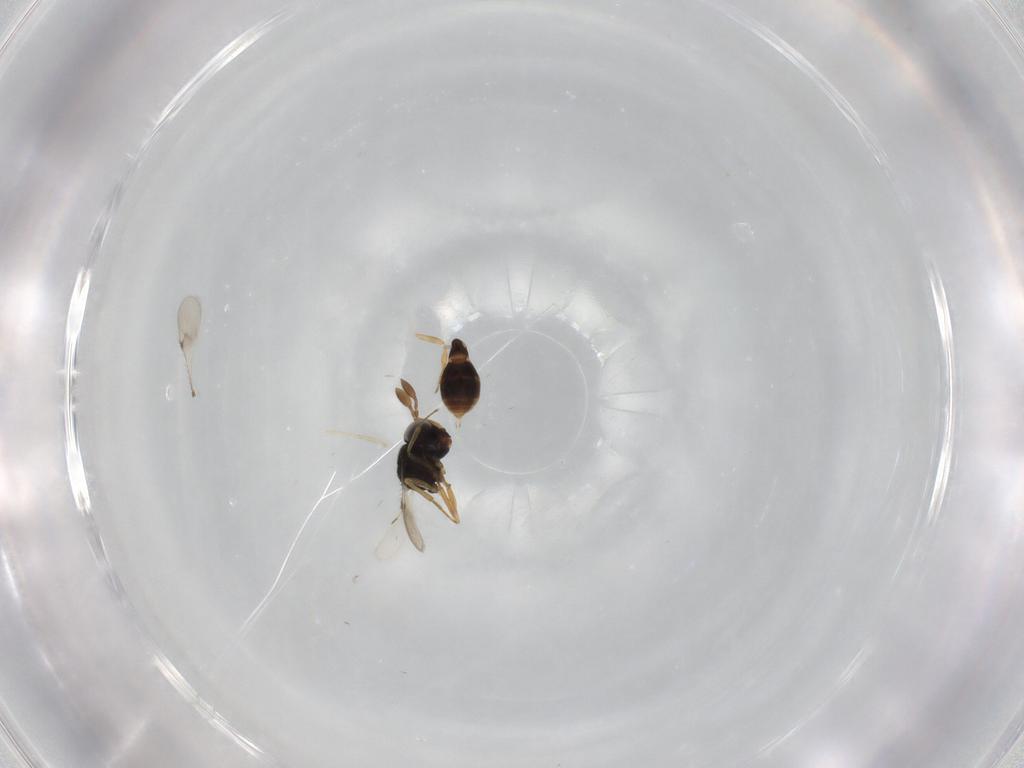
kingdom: Animalia
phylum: Arthropoda
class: Insecta
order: Hymenoptera
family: Scelionidae
